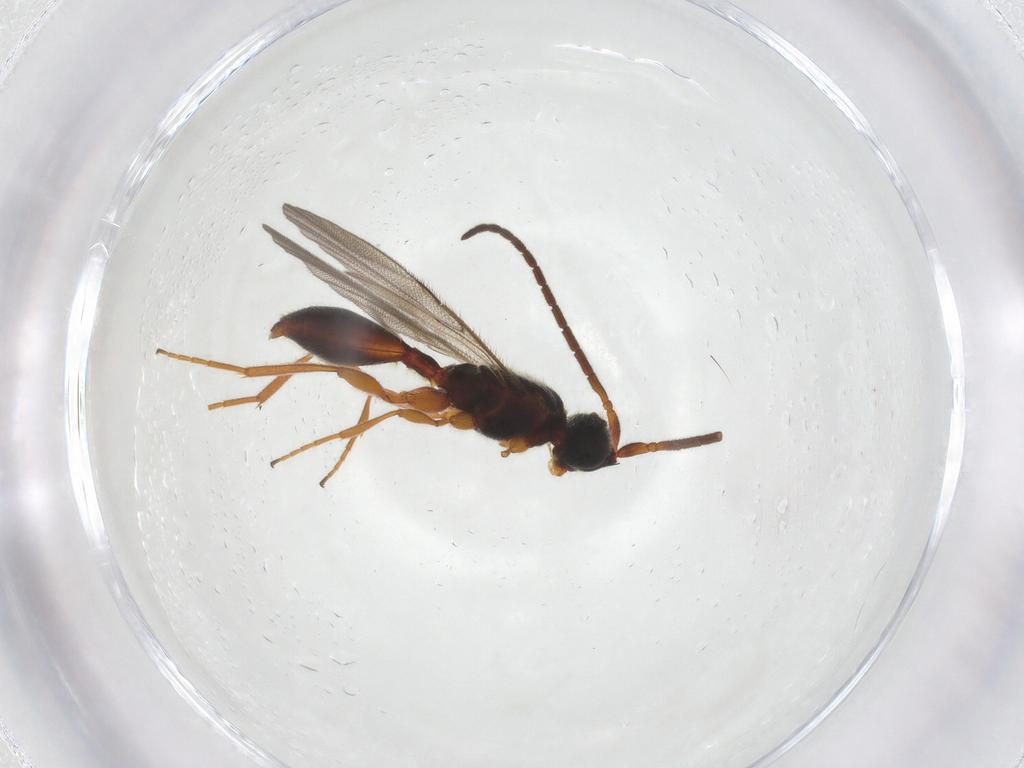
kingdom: Animalia
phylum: Arthropoda
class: Insecta
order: Hymenoptera
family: Diapriidae
